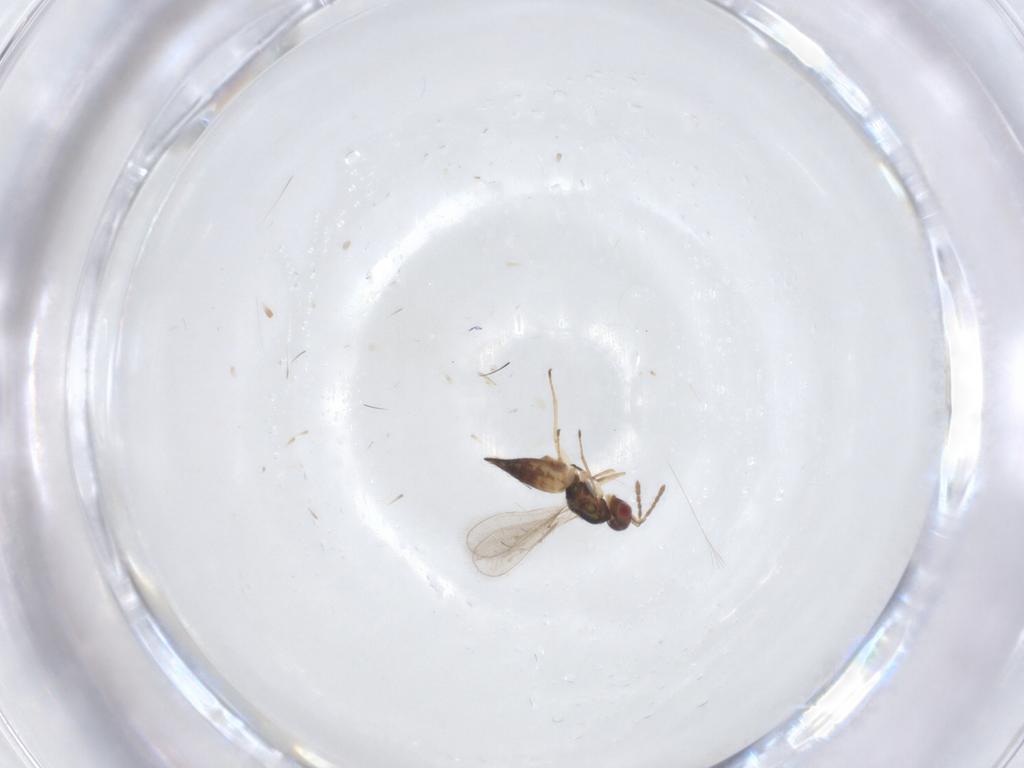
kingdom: Animalia
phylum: Arthropoda
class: Insecta
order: Hymenoptera
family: Eulophidae
